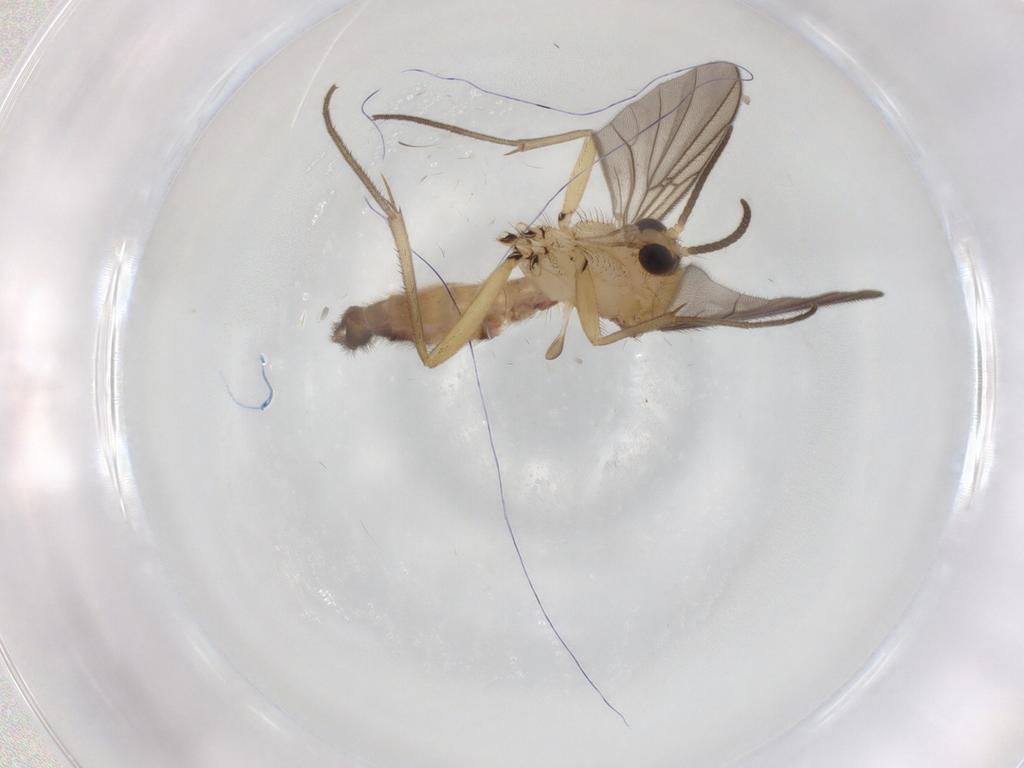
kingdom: Animalia
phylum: Arthropoda
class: Insecta
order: Diptera
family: Mycetophilidae
